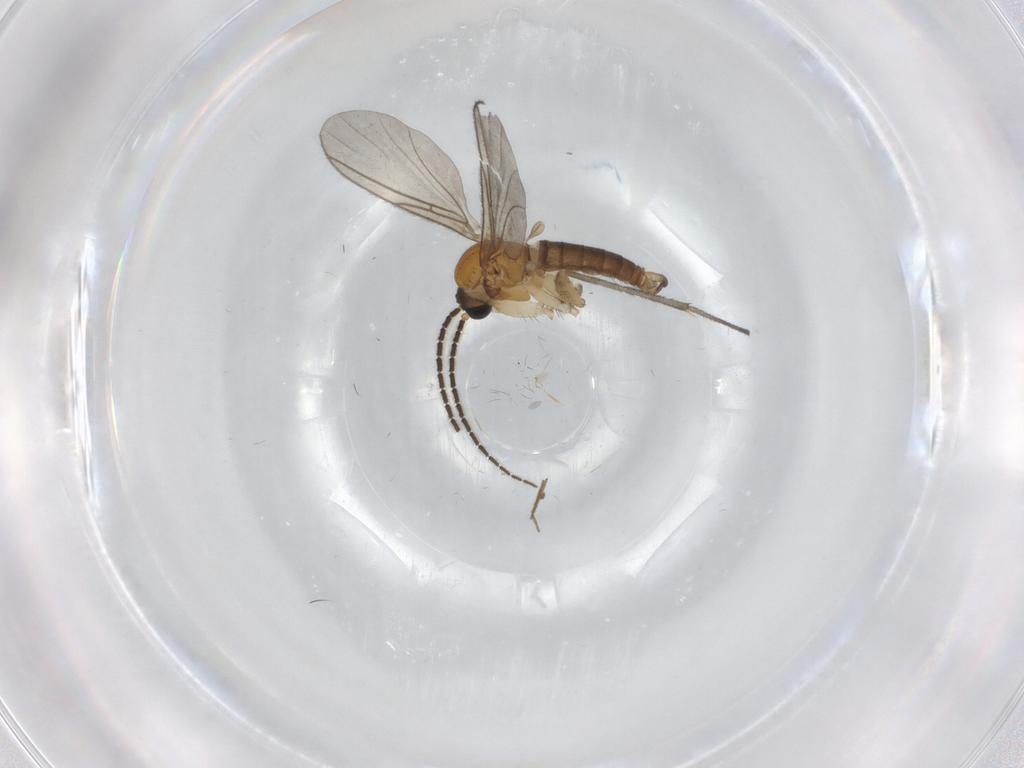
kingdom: Animalia
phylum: Arthropoda
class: Insecta
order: Diptera
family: Sciaridae
